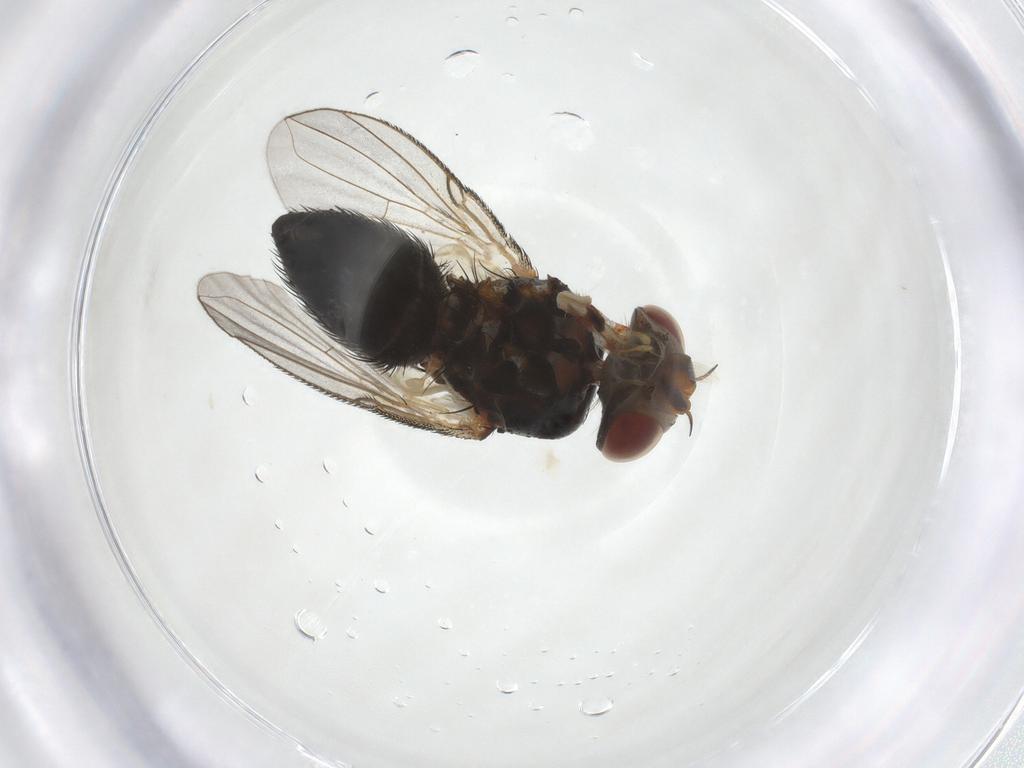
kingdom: Animalia
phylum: Arthropoda
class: Insecta
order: Diptera
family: Tachinidae
